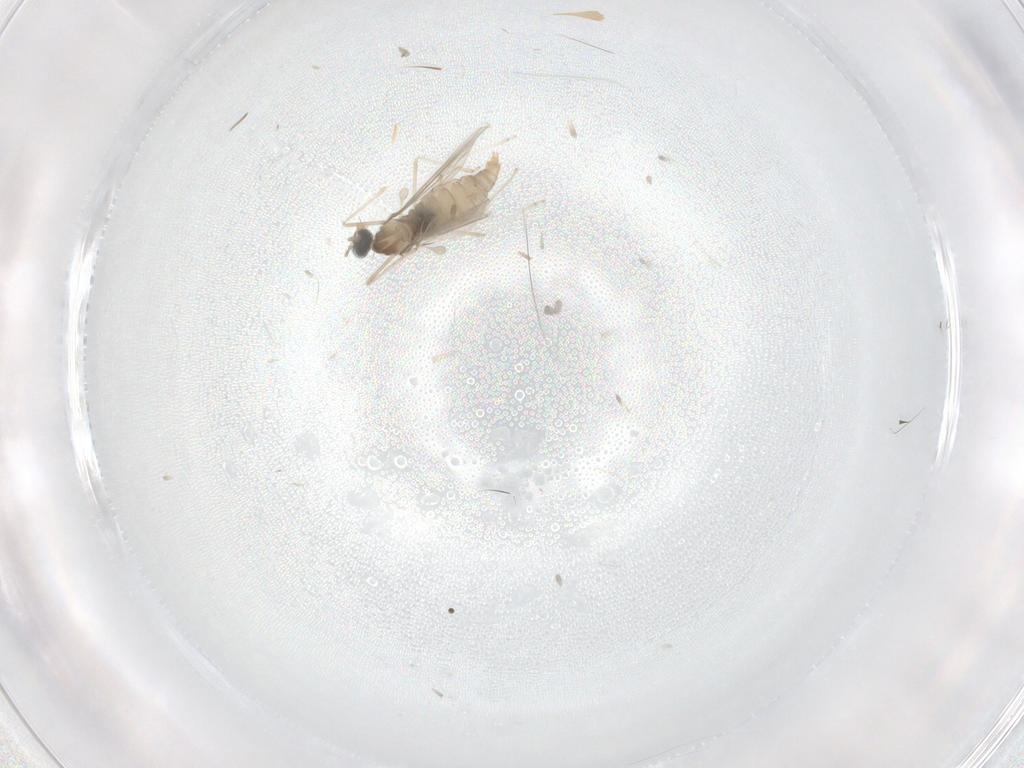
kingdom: Animalia
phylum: Arthropoda
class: Insecta
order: Diptera
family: Cecidomyiidae
